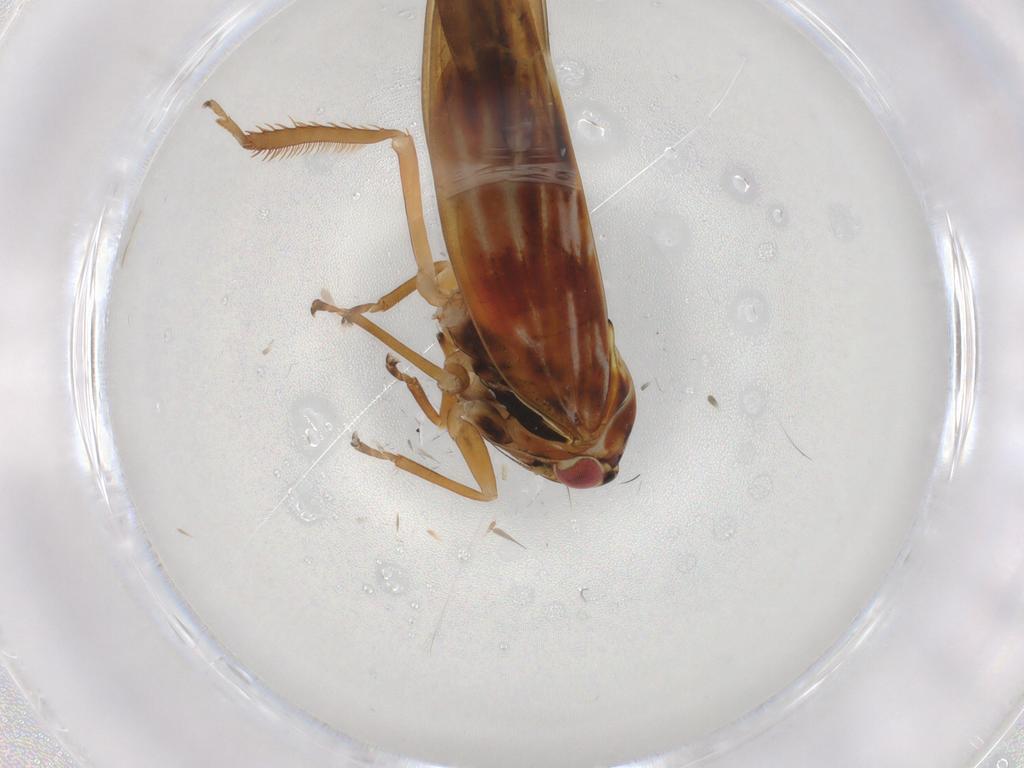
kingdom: Animalia
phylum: Arthropoda
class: Insecta
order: Hemiptera
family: Cicadellidae
